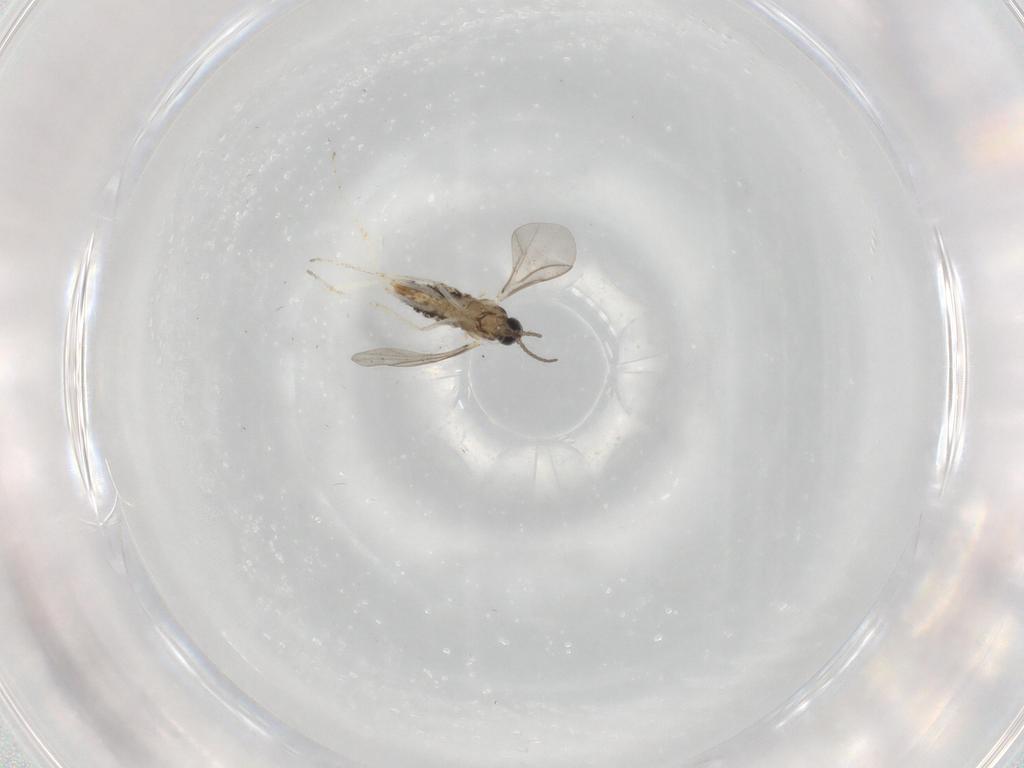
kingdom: Animalia
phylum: Arthropoda
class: Insecta
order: Diptera
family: Cecidomyiidae
